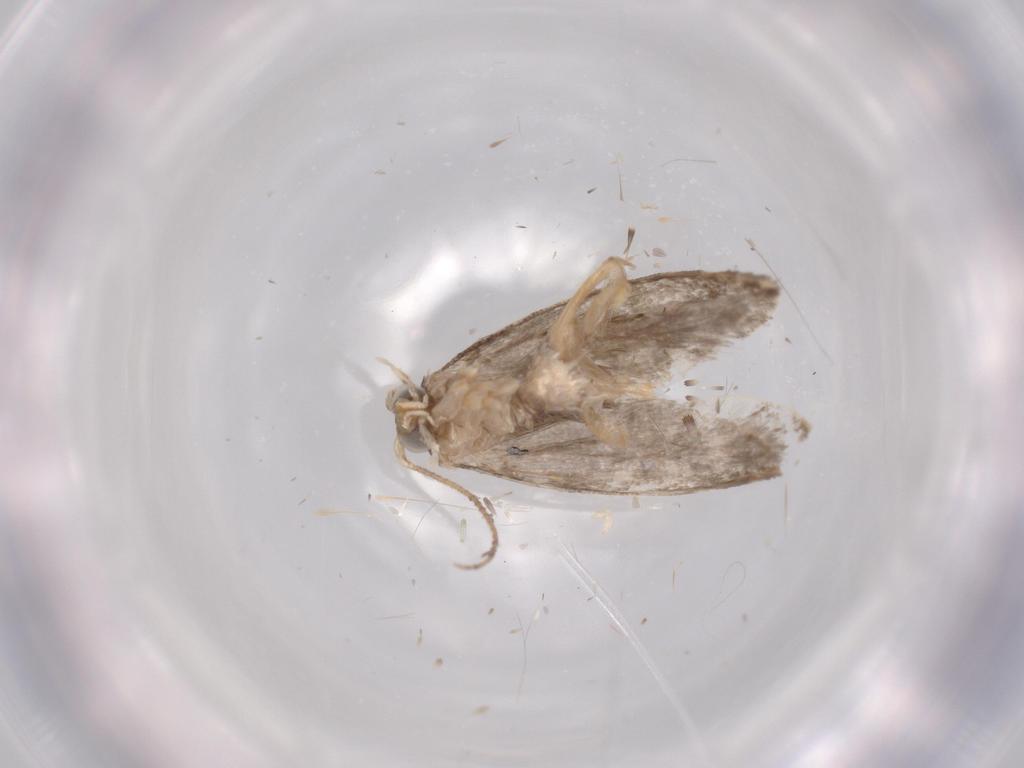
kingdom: Animalia
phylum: Arthropoda
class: Insecta
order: Lepidoptera
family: Tineidae
